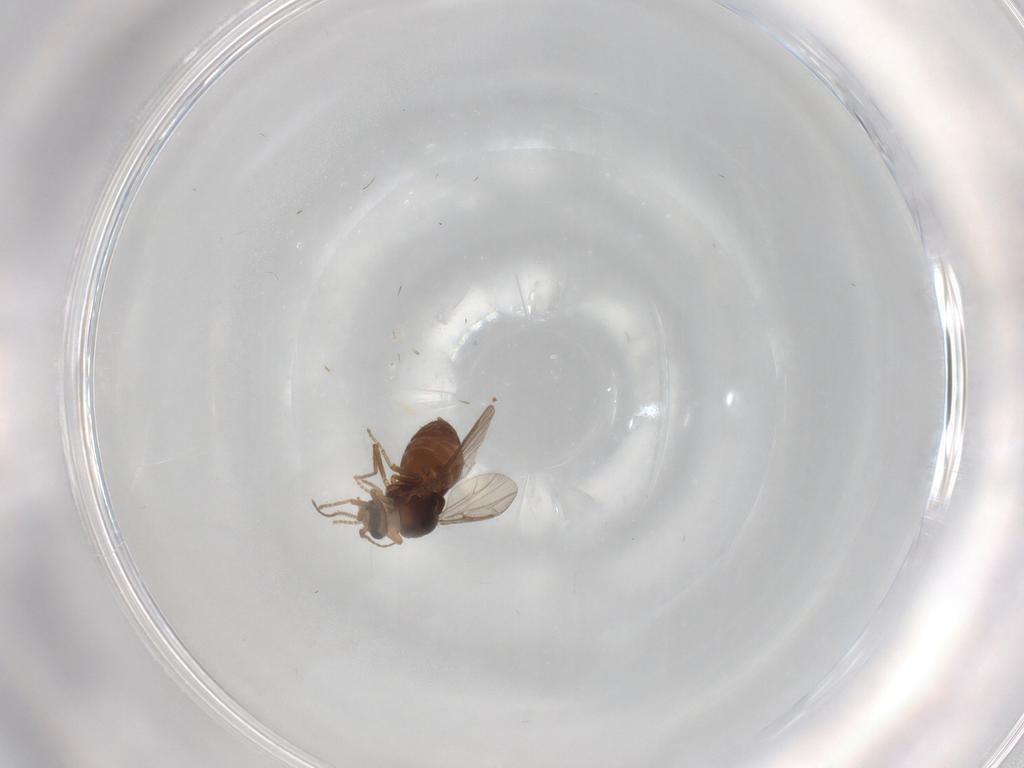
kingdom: Animalia
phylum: Arthropoda
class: Insecta
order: Diptera
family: Ceratopogonidae
